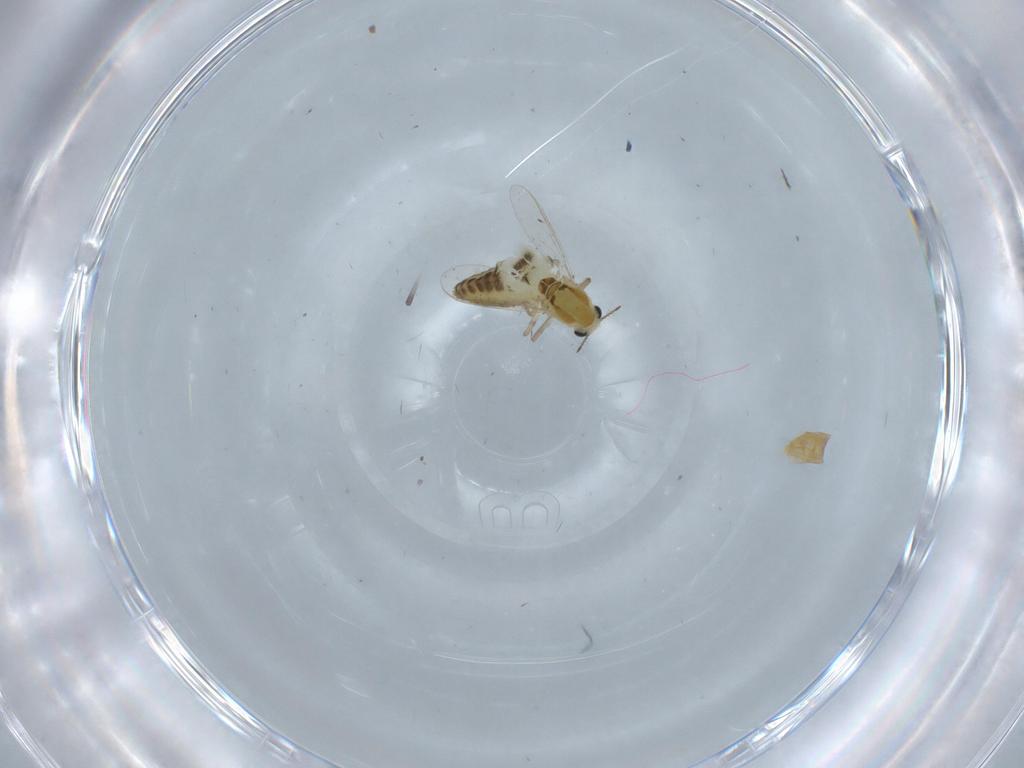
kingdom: Animalia
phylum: Arthropoda
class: Insecta
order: Diptera
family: Chironomidae
